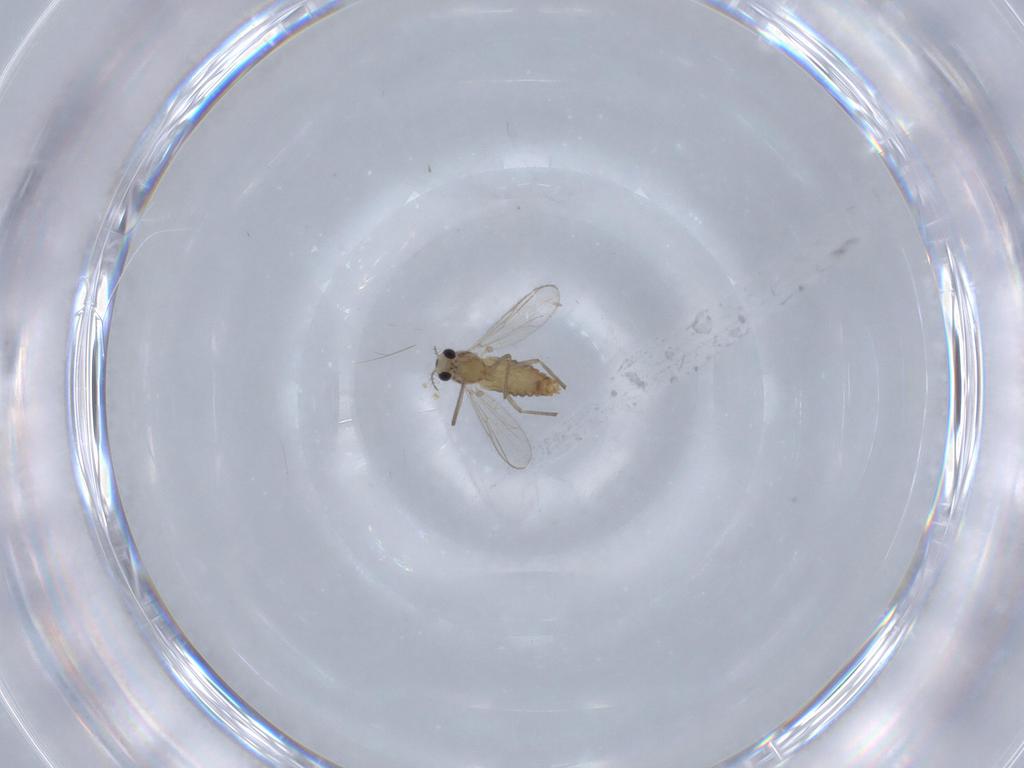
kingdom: Animalia
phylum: Arthropoda
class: Insecta
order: Diptera
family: Chironomidae
